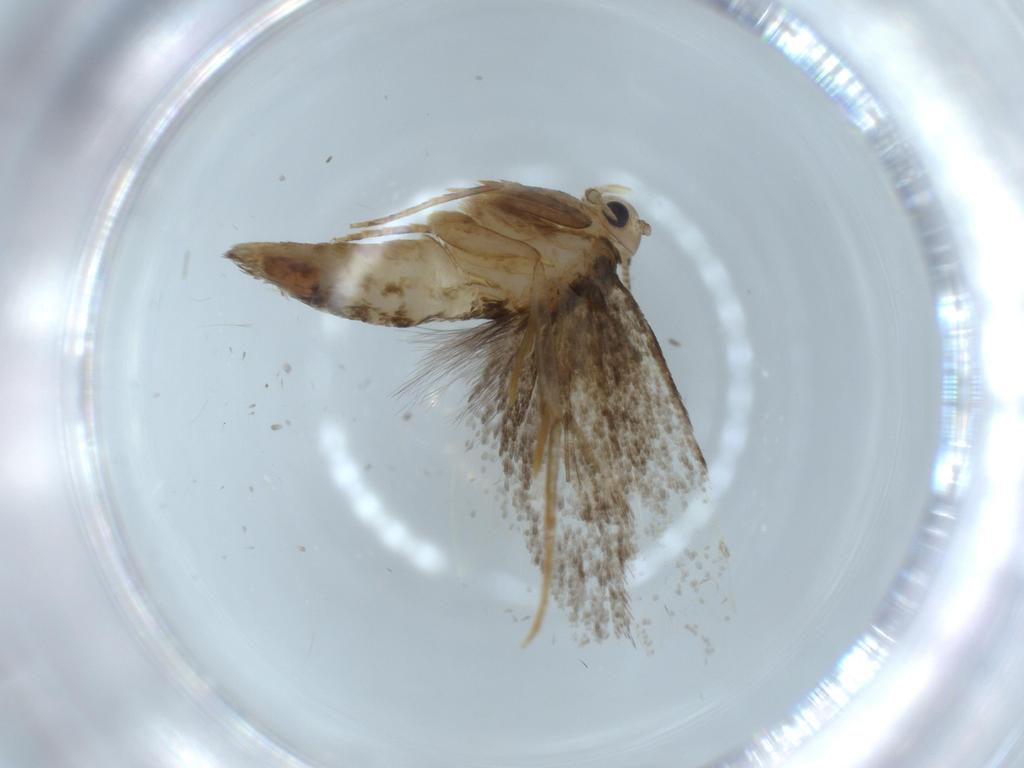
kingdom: Animalia
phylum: Arthropoda
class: Insecta
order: Lepidoptera
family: Tineidae
